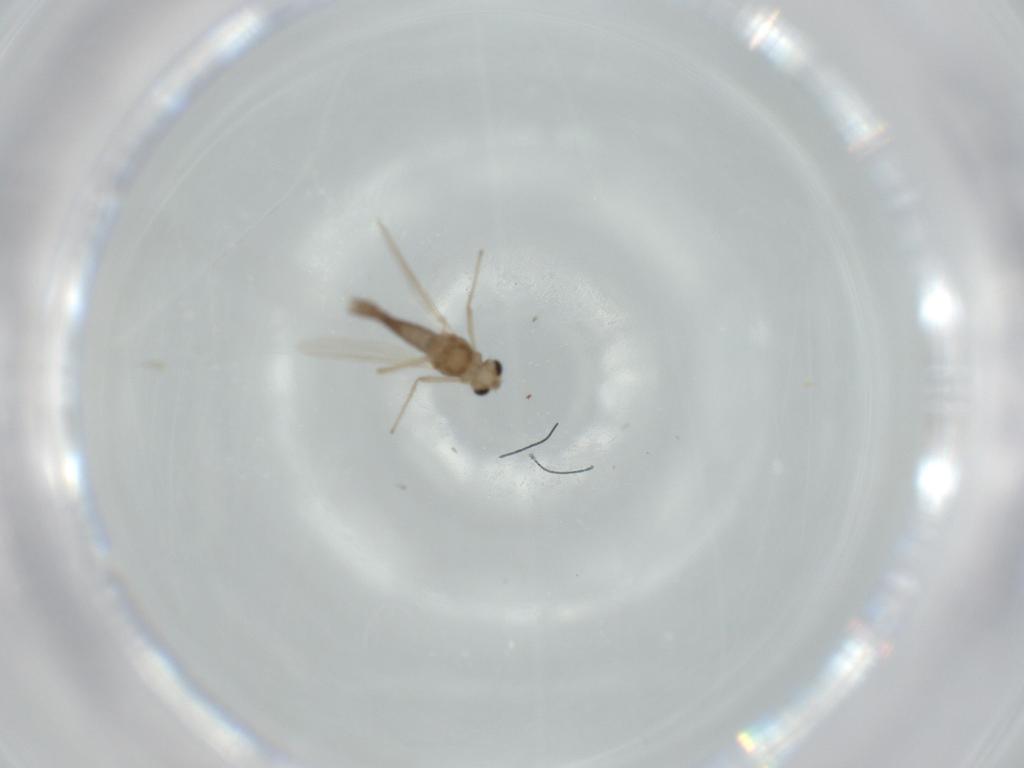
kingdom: Animalia
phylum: Arthropoda
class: Insecta
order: Diptera
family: Chironomidae
